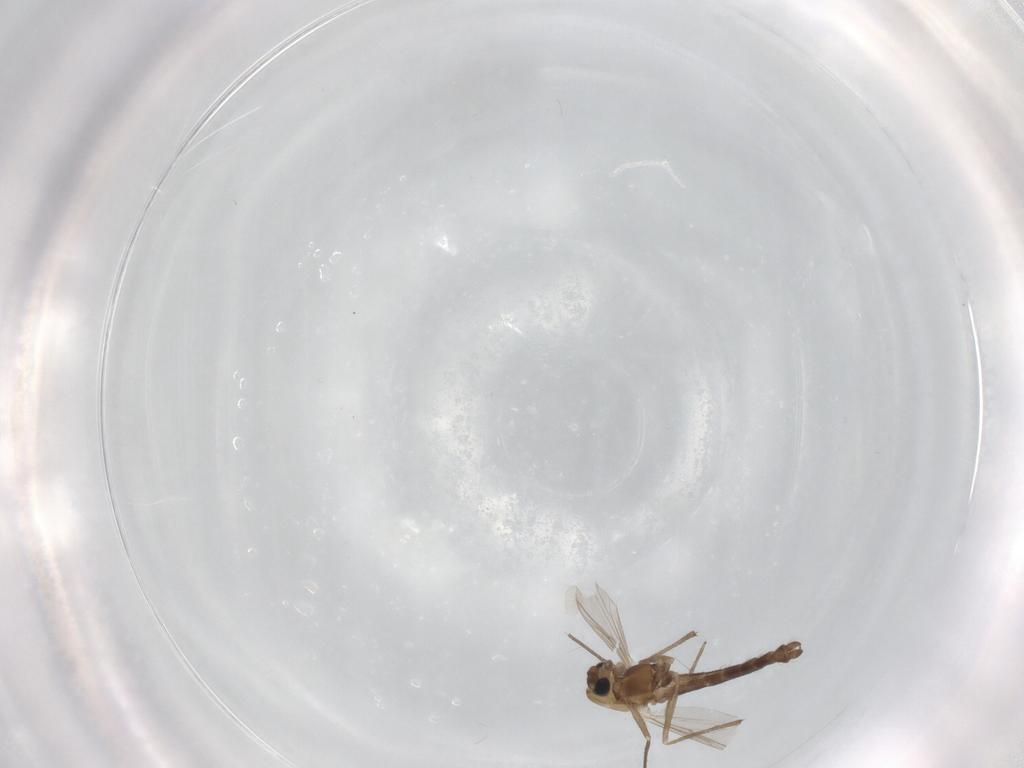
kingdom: Animalia
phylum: Arthropoda
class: Insecta
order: Diptera
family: Chironomidae
